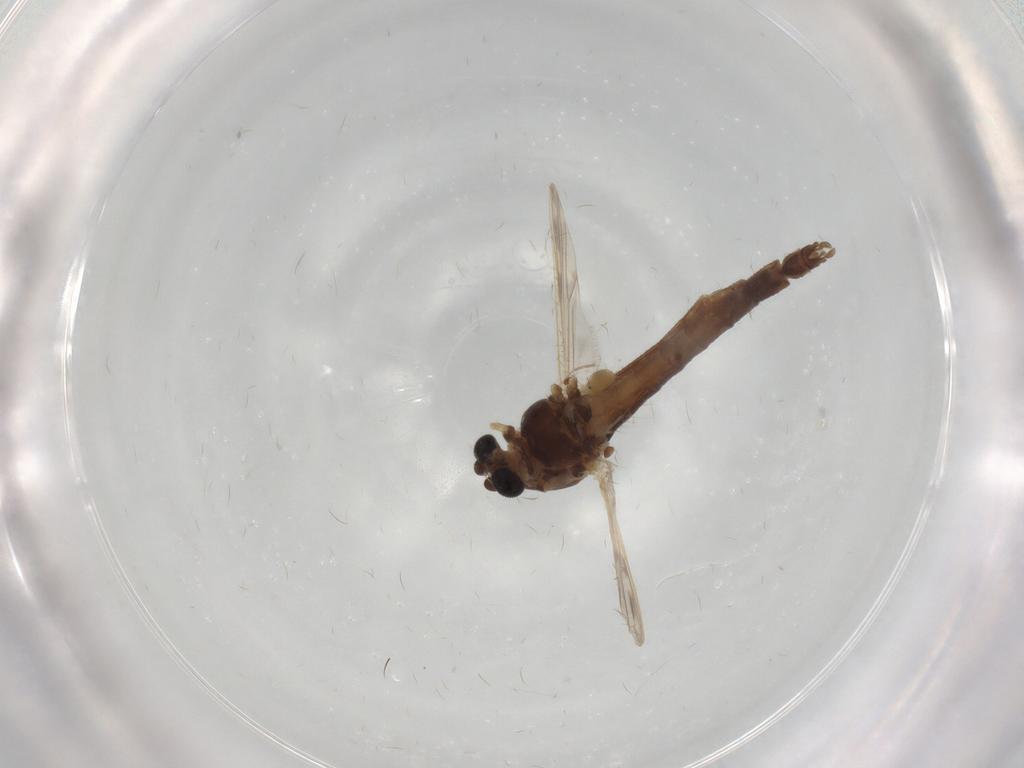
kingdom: Animalia
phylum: Arthropoda
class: Insecta
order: Diptera
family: Chironomidae
